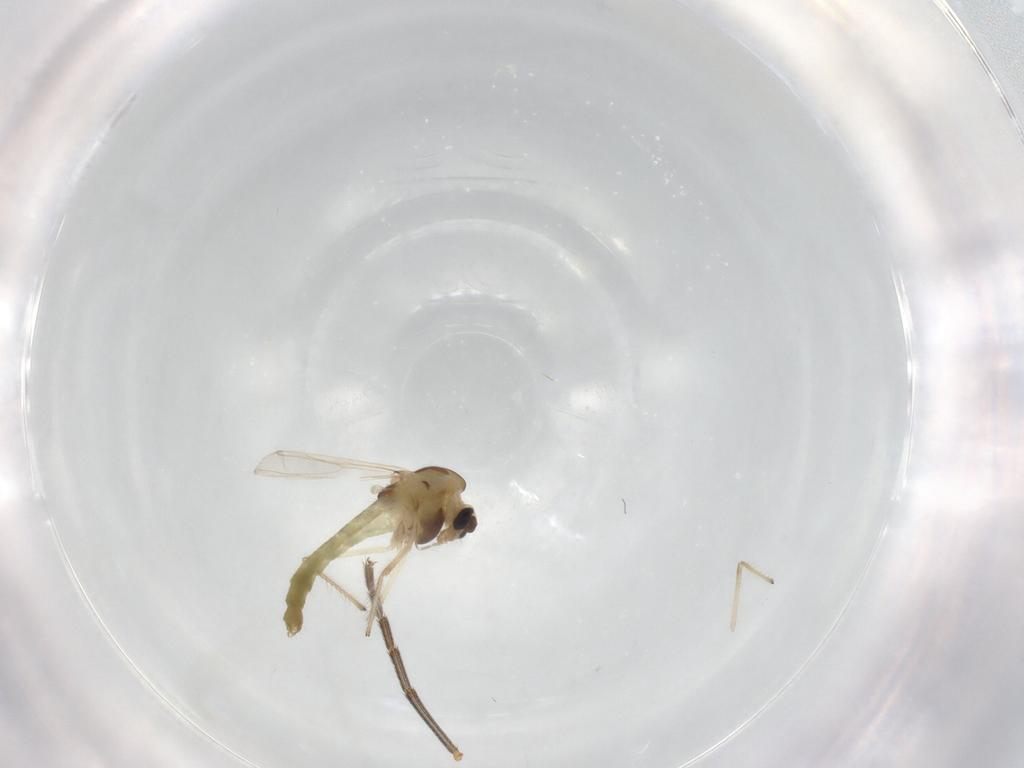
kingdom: Animalia
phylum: Arthropoda
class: Insecta
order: Diptera
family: Chironomidae
